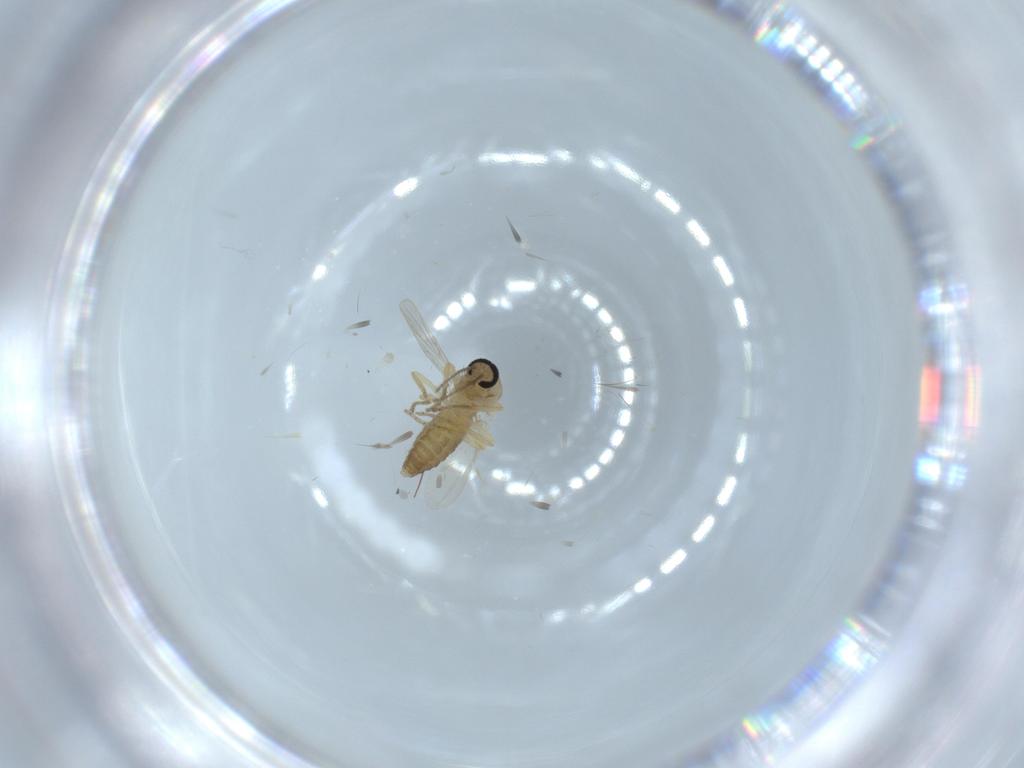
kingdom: Animalia
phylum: Arthropoda
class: Insecta
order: Diptera
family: Ceratopogonidae
